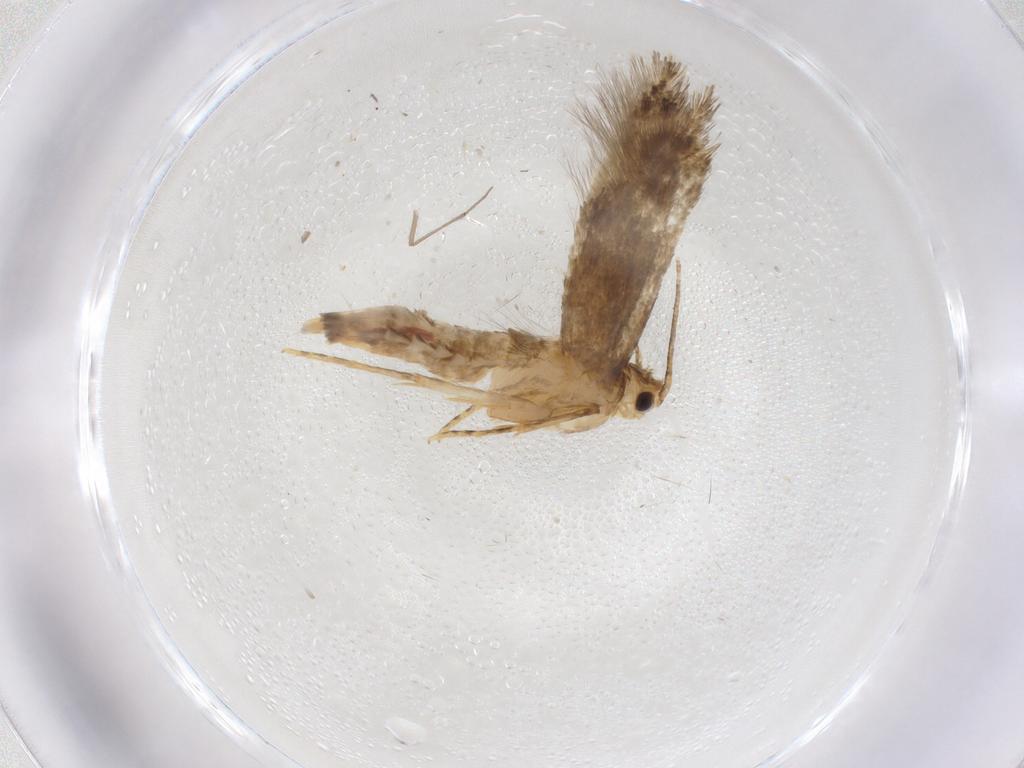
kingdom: Animalia
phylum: Arthropoda
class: Insecta
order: Lepidoptera
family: Tineidae
